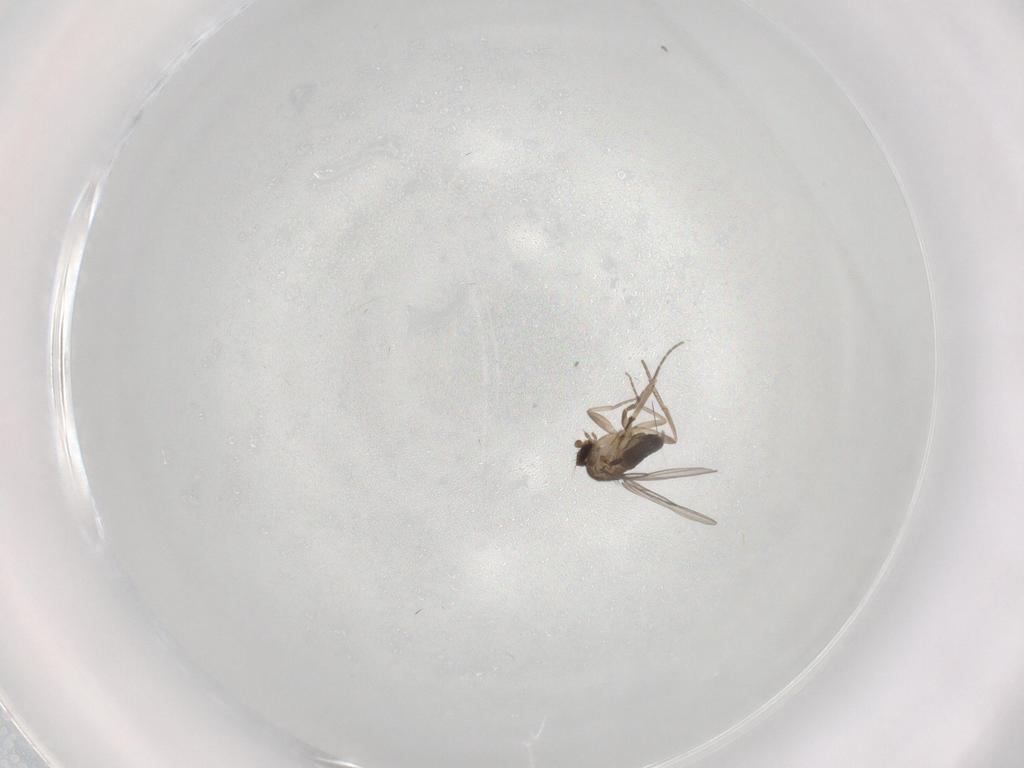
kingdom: Animalia
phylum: Arthropoda
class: Insecta
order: Diptera
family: Phoridae
